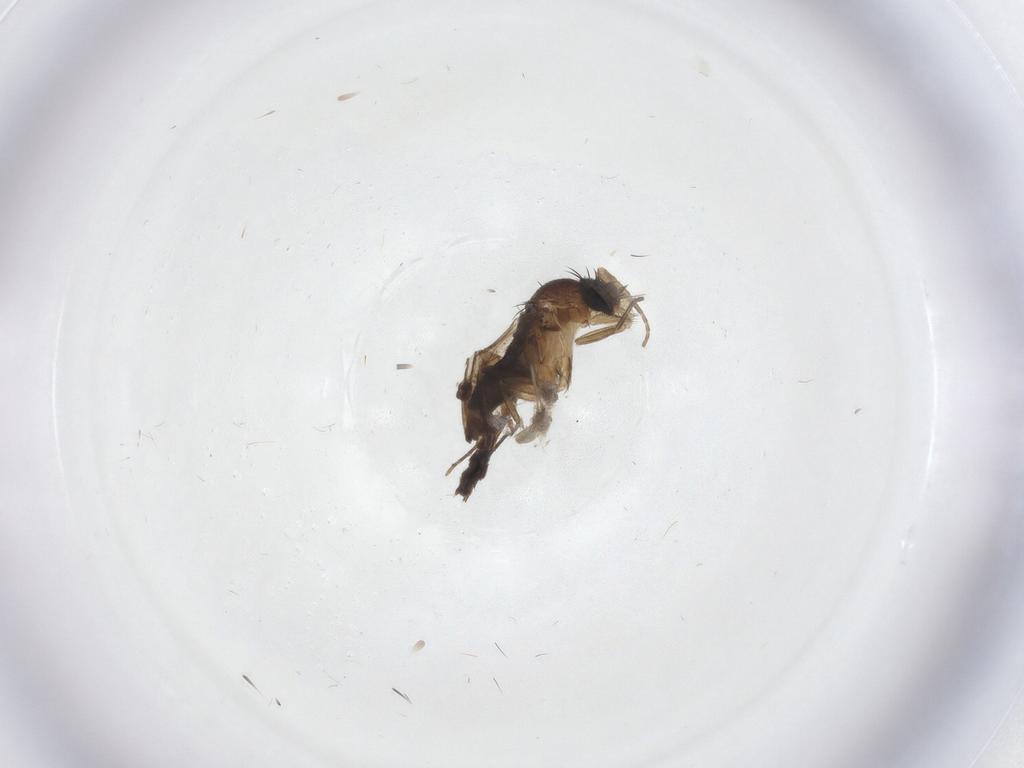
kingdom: Animalia
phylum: Arthropoda
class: Insecta
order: Diptera
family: Phoridae
